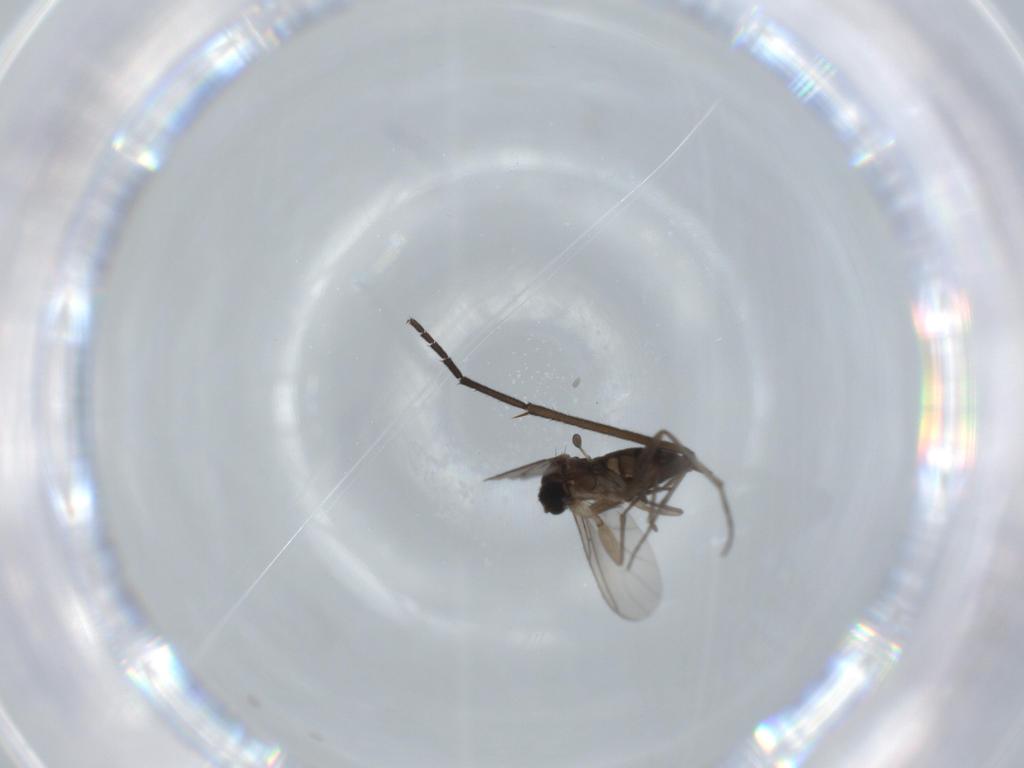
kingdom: Animalia
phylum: Arthropoda
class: Insecta
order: Diptera
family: Sciaridae
